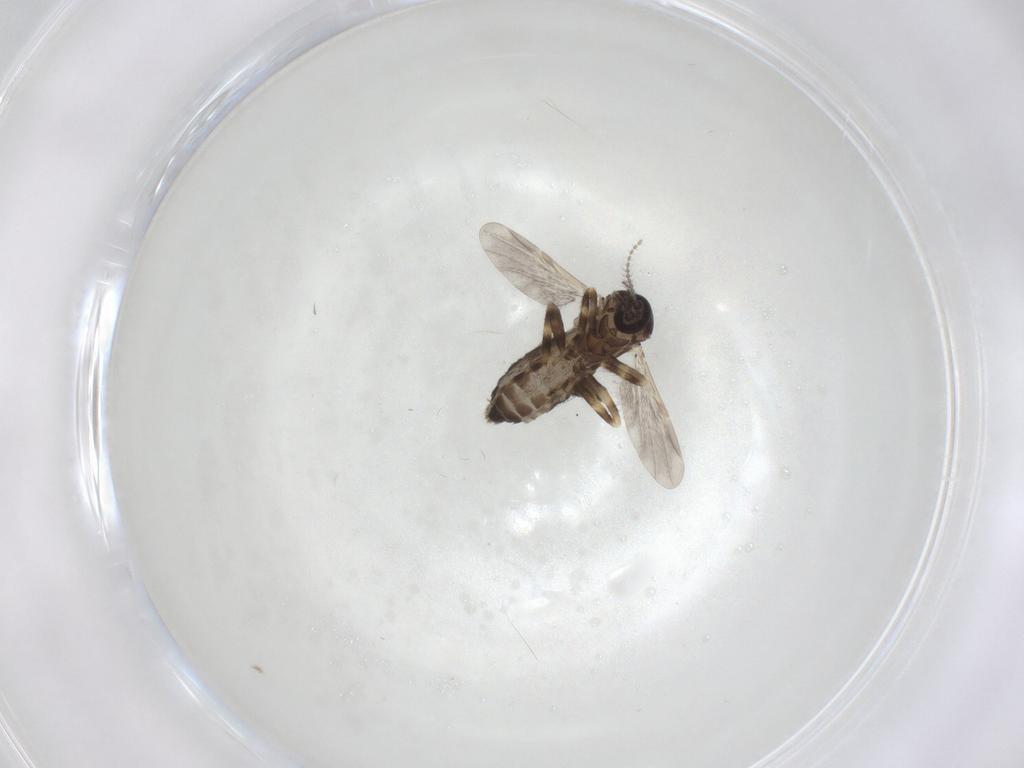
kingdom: Animalia
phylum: Arthropoda
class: Insecta
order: Diptera
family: Ceratopogonidae
